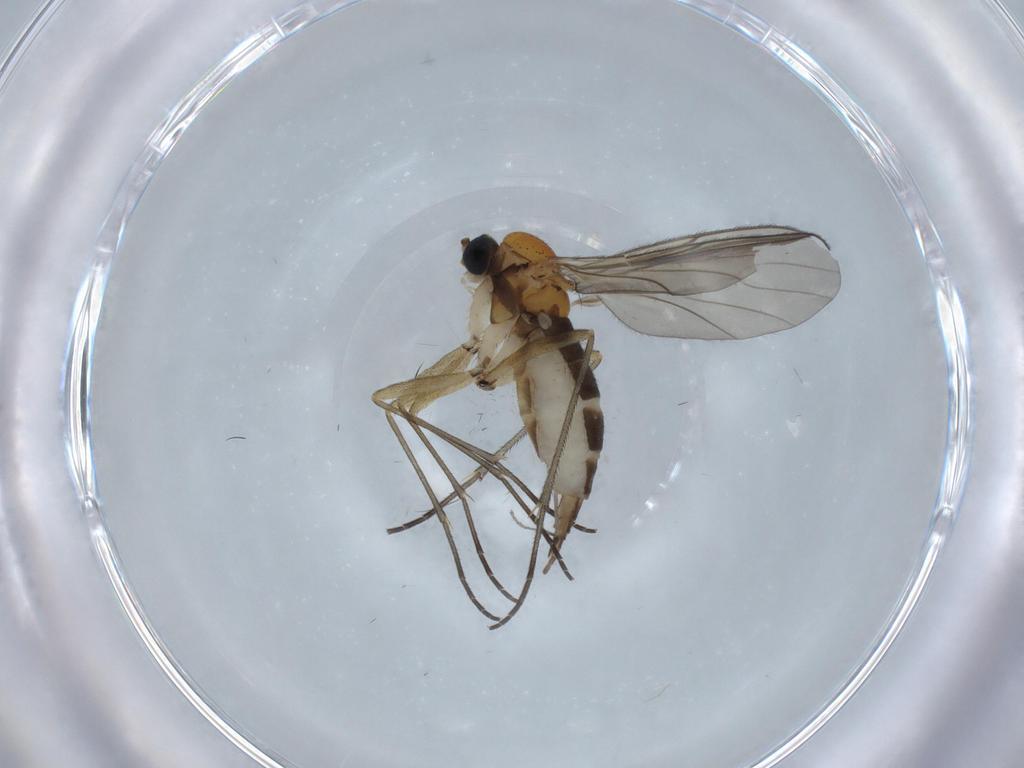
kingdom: Animalia
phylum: Arthropoda
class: Insecta
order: Diptera
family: Sciaridae
